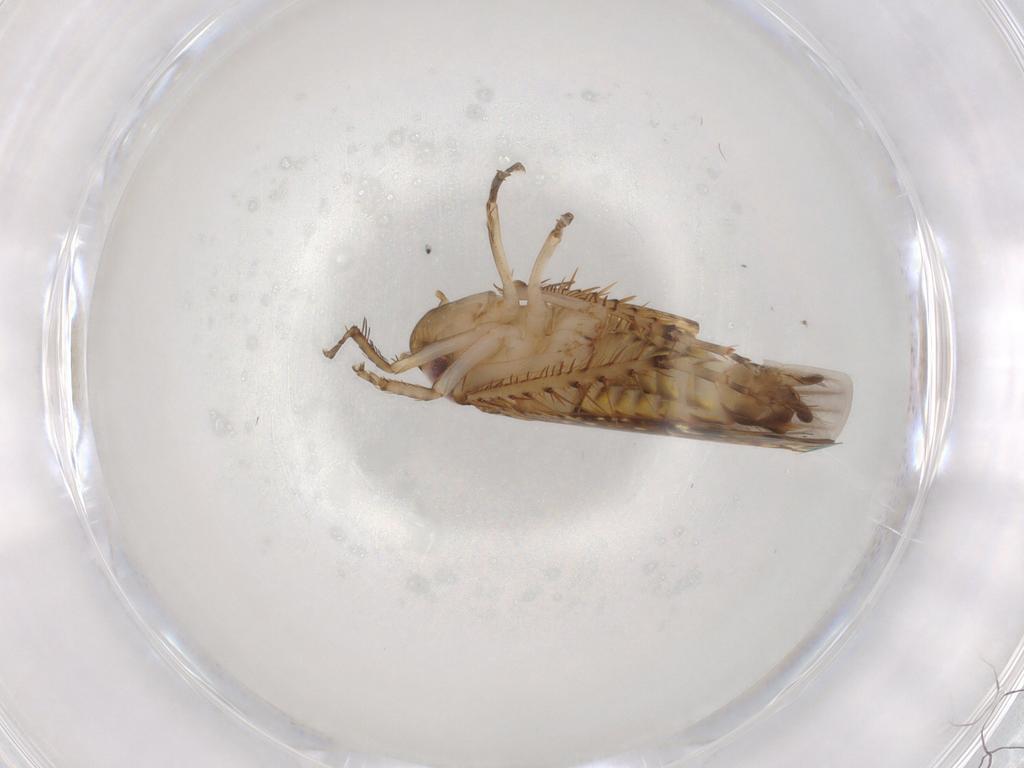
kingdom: Animalia
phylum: Arthropoda
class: Insecta
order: Hemiptera
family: Cicadellidae
